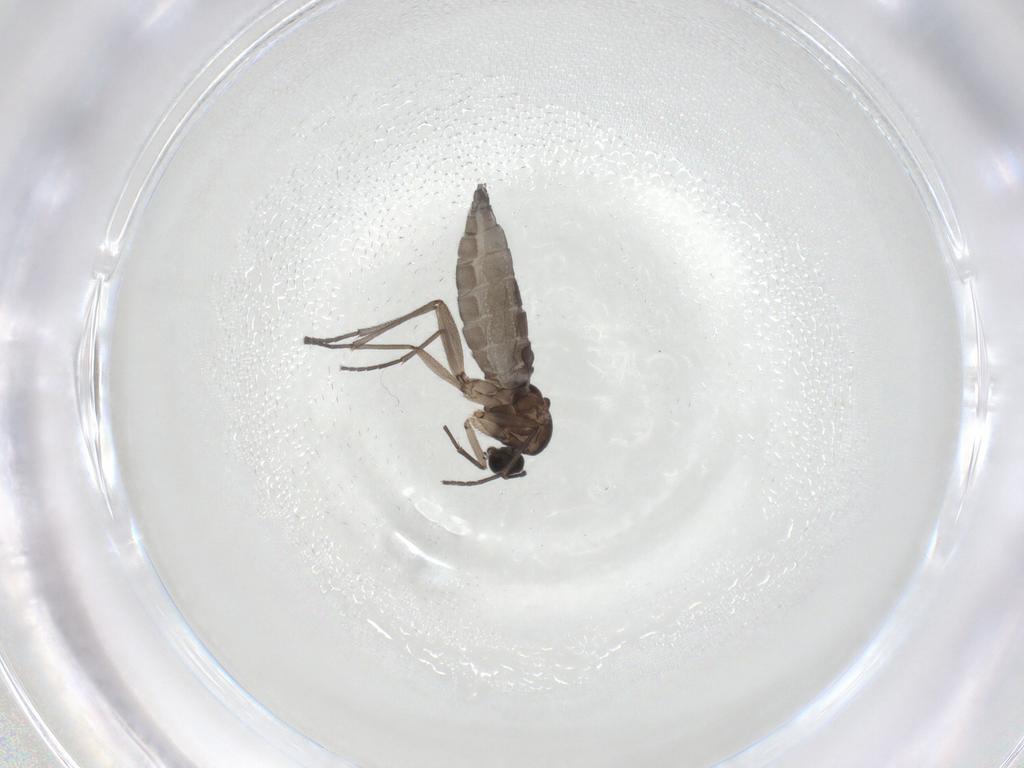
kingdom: Animalia
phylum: Arthropoda
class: Insecta
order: Diptera
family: Sciaridae
